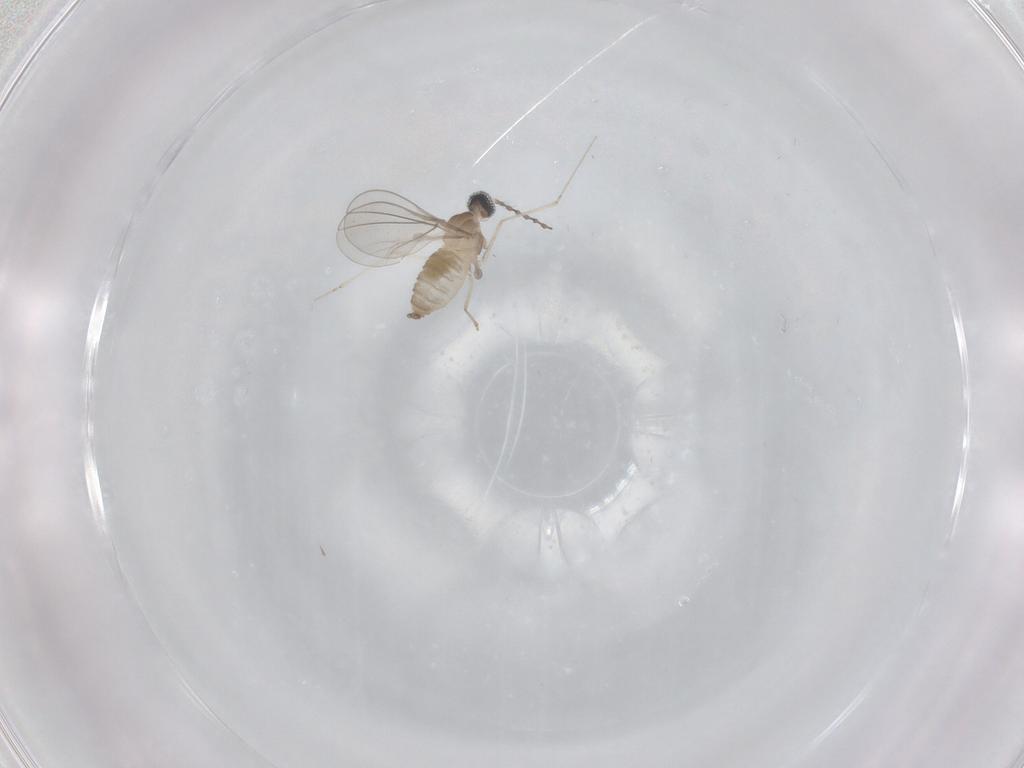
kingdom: Animalia
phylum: Arthropoda
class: Insecta
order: Diptera
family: Cecidomyiidae
